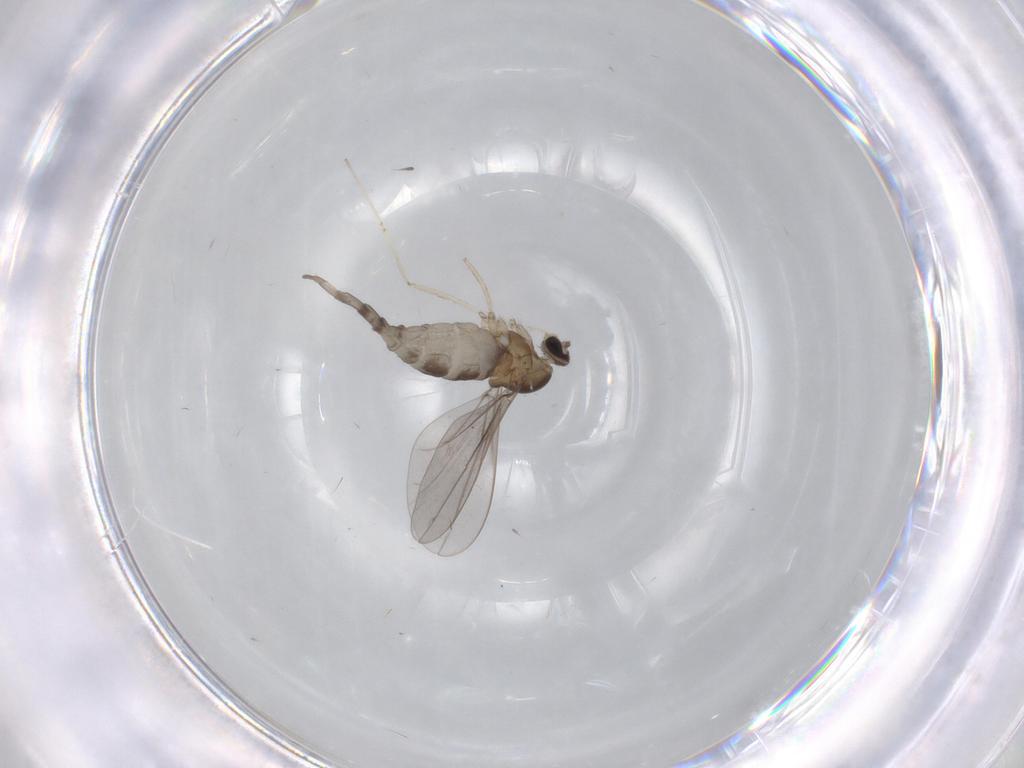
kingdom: Animalia
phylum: Arthropoda
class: Insecta
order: Diptera
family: Cecidomyiidae
